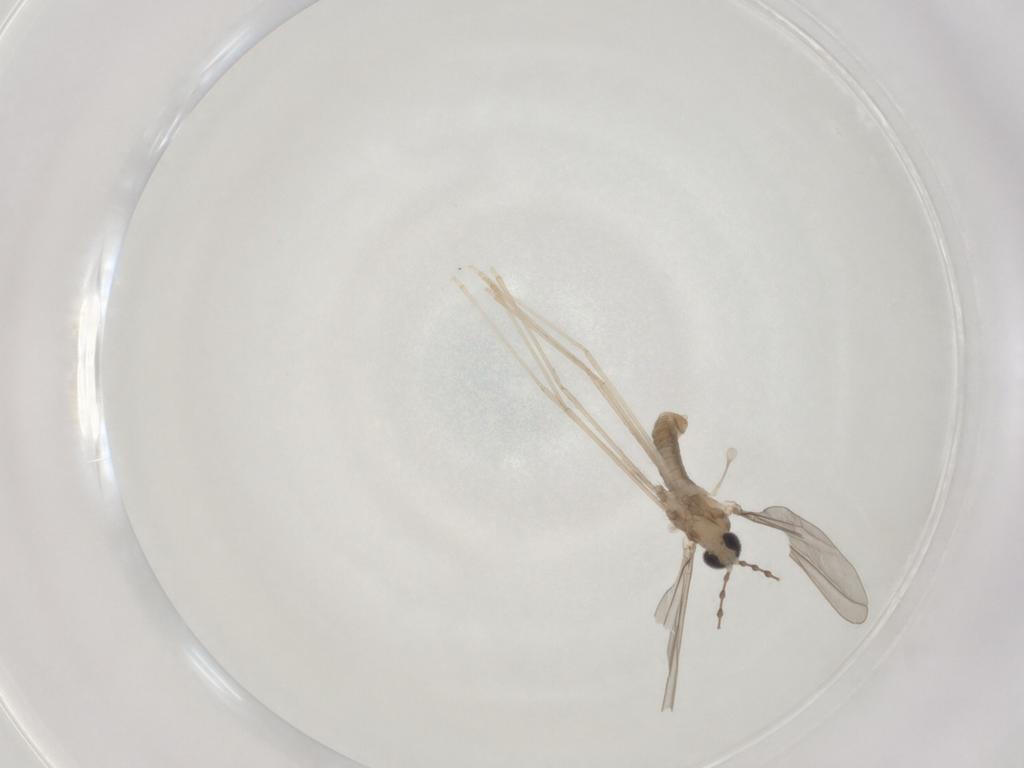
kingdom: Animalia
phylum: Arthropoda
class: Insecta
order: Diptera
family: Cecidomyiidae
